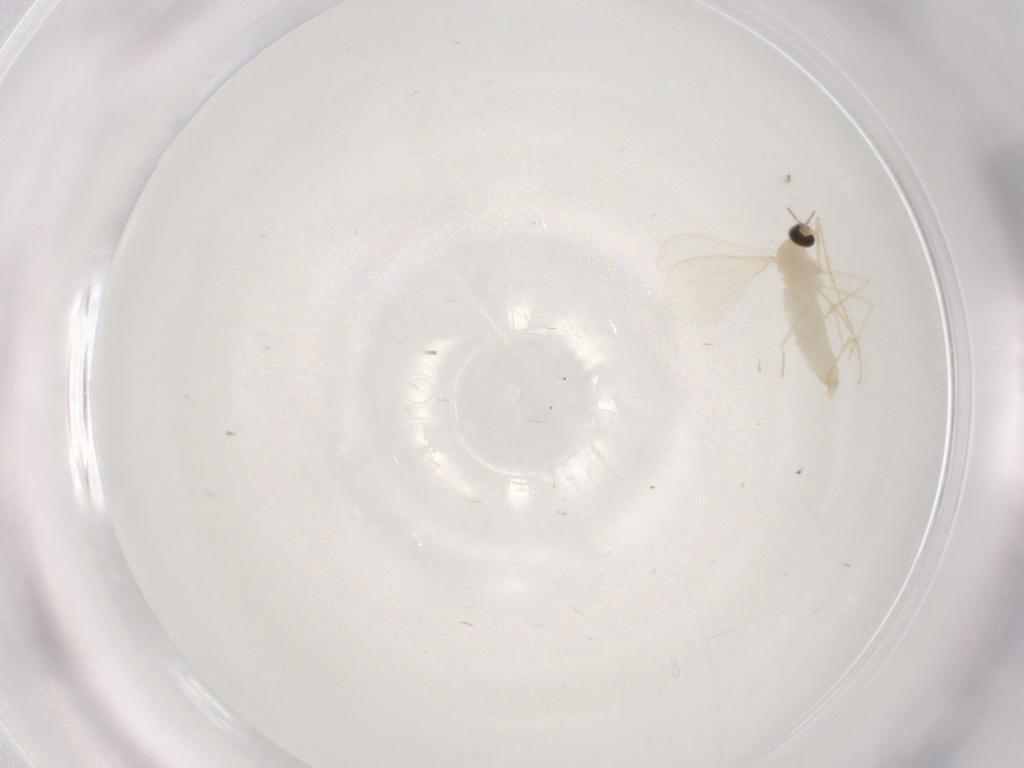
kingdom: Animalia
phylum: Arthropoda
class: Insecta
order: Diptera
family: Cecidomyiidae
